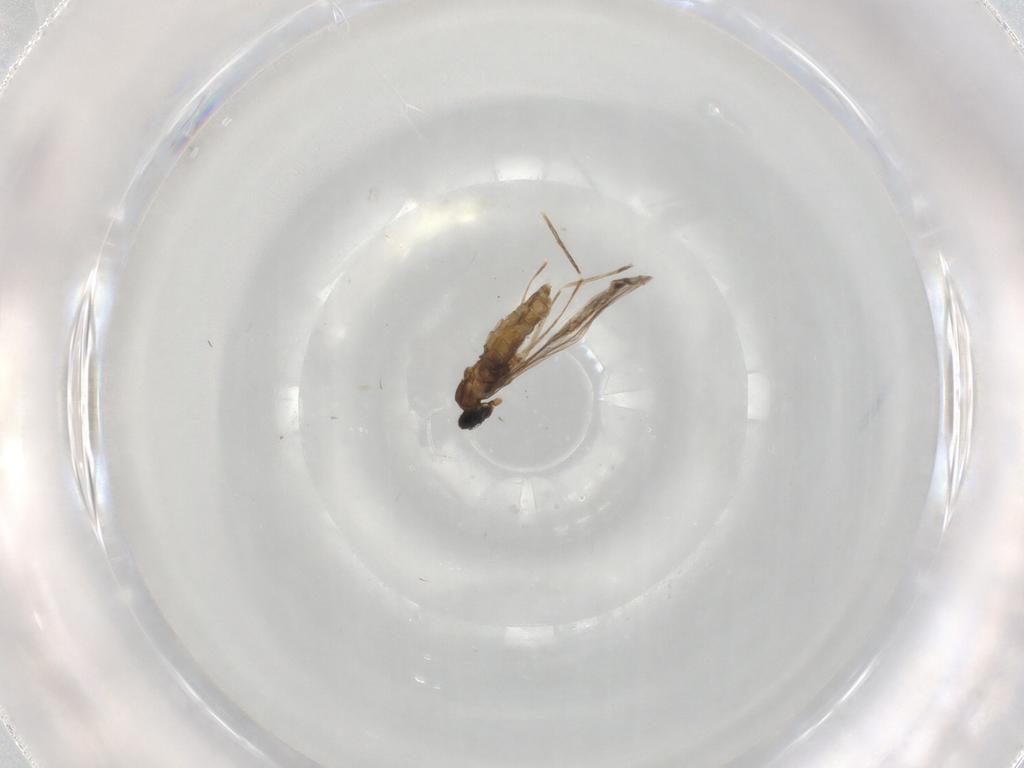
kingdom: Animalia
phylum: Arthropoda
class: Insecta
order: Diptera
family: Cecidomyiidae
